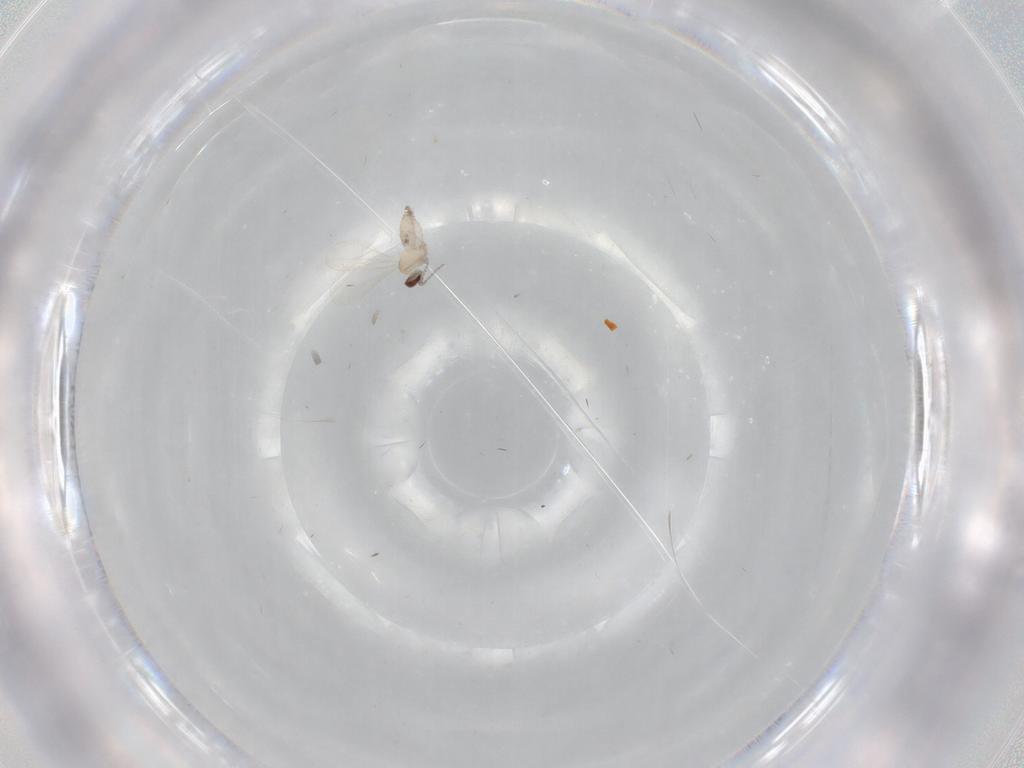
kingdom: Animalia
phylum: Arthropoda
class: Insecta
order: Diptera
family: Cecidomyiidae
